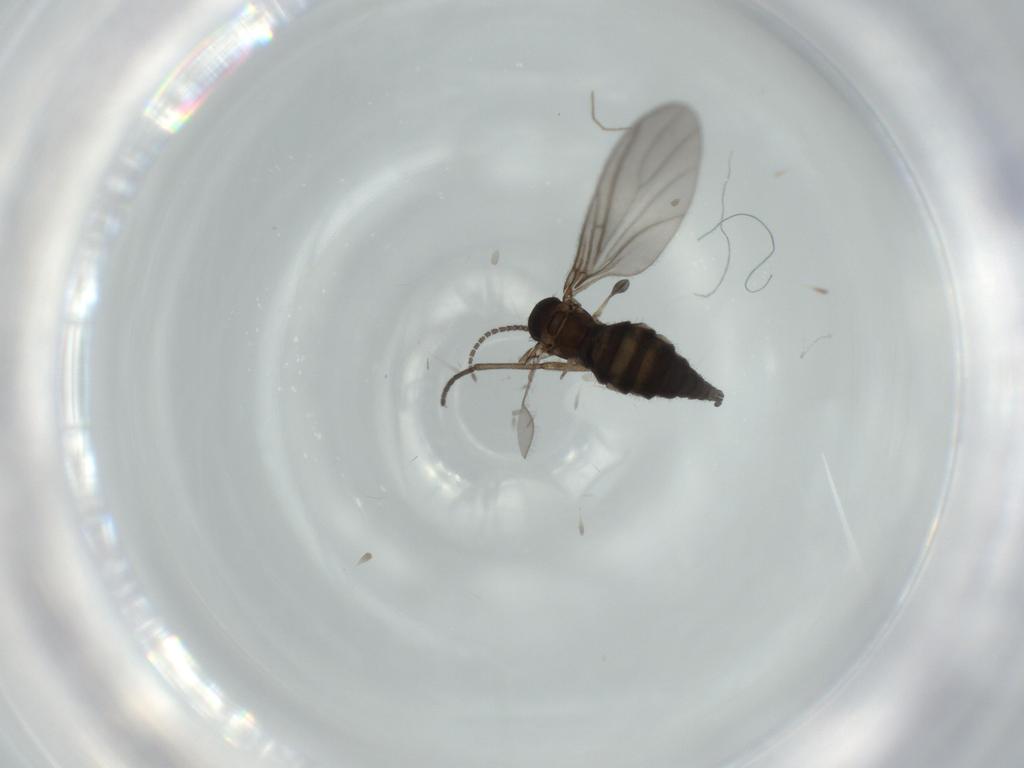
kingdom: Animalia
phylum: Arthropoda
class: Insecta
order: Diptera
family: Sciaridae
